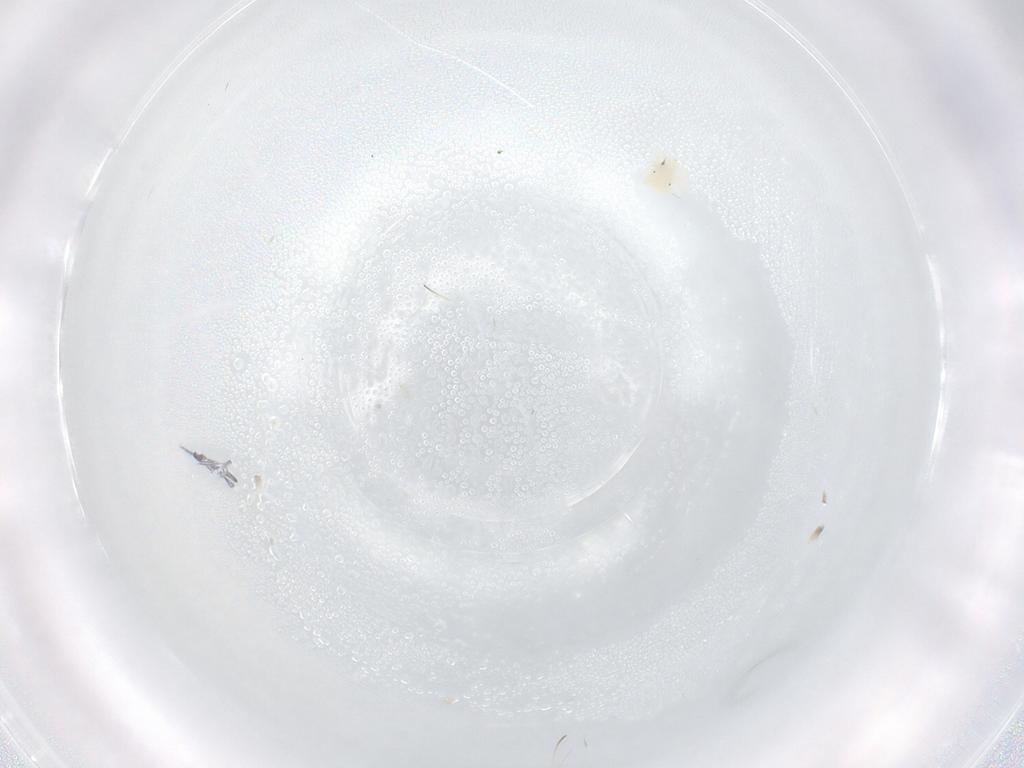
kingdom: Animalia
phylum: Arthropoda
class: Arachnida
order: Trombidiformes
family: Anystidae
